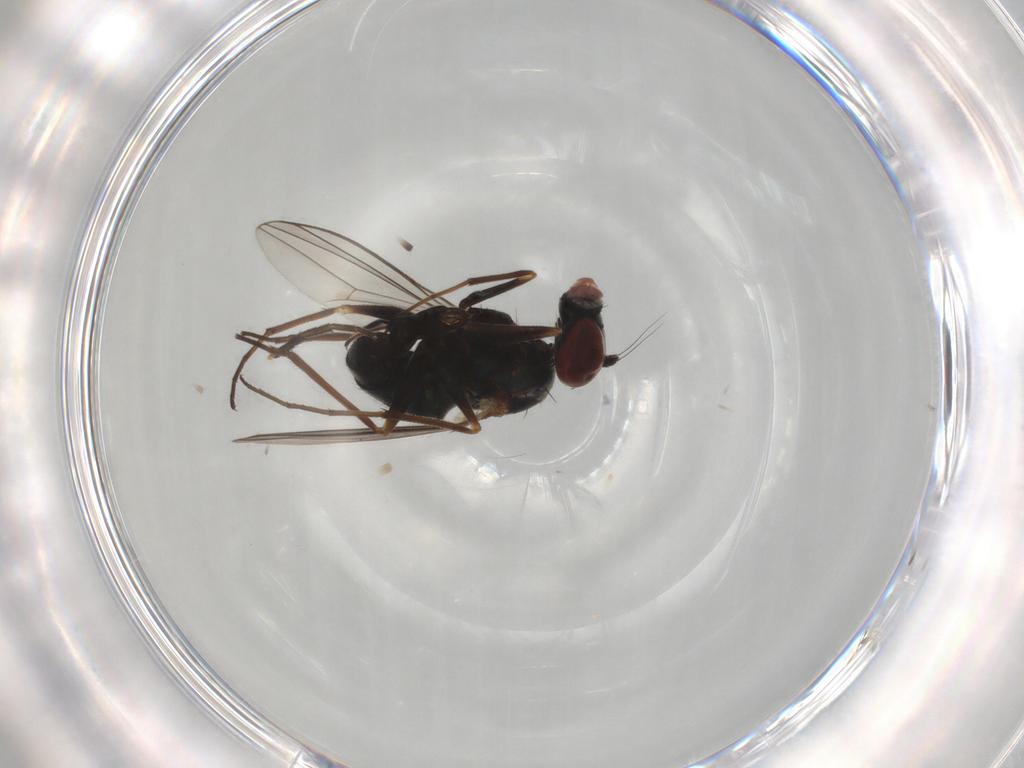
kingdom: Animalia
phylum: Arthropoda
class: Insecta
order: Diptera
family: Dolichopodidae
